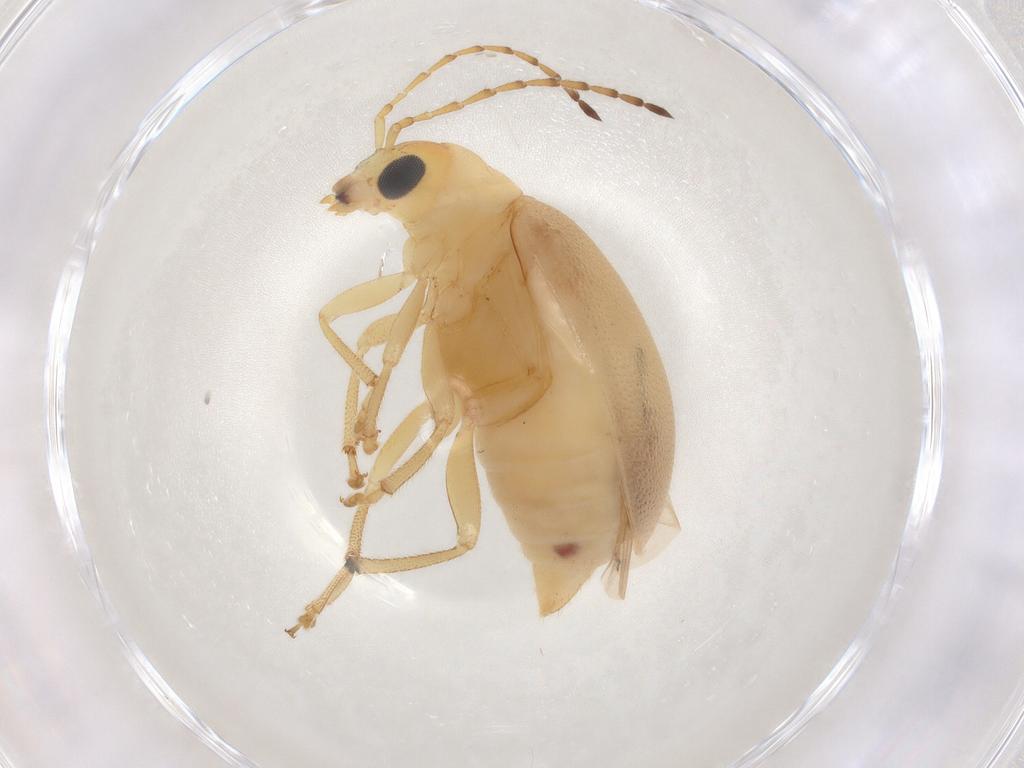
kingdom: Animalia
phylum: Arthropoda
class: Insecta
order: Coleoptera
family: Chrysomelidae
